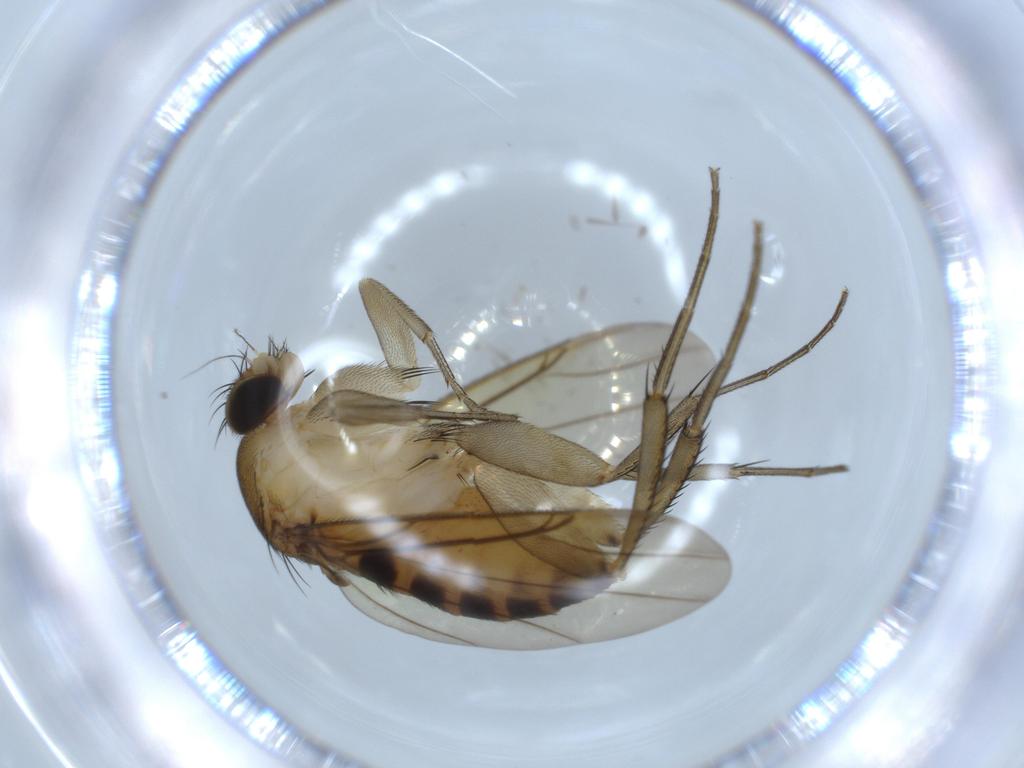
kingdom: Animalia
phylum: Arthropoda
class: Insecta
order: Diptera
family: Phoridae
